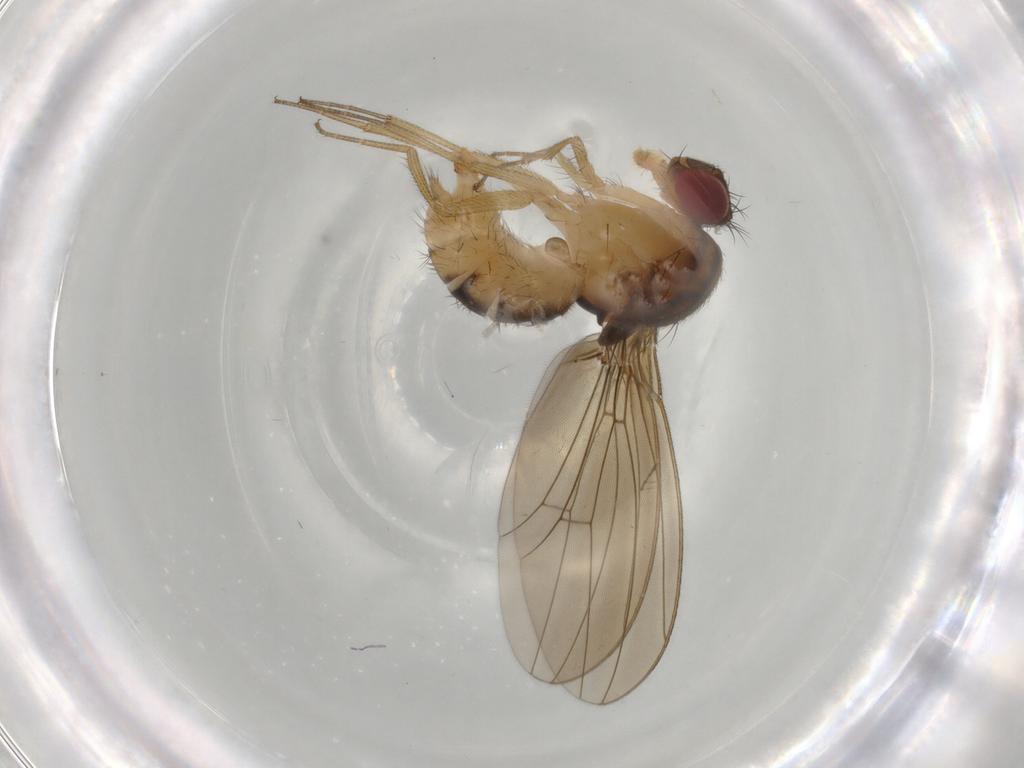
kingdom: Animalia
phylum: Arthropoda
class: Insecta
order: Diptera
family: Drosophilidae
